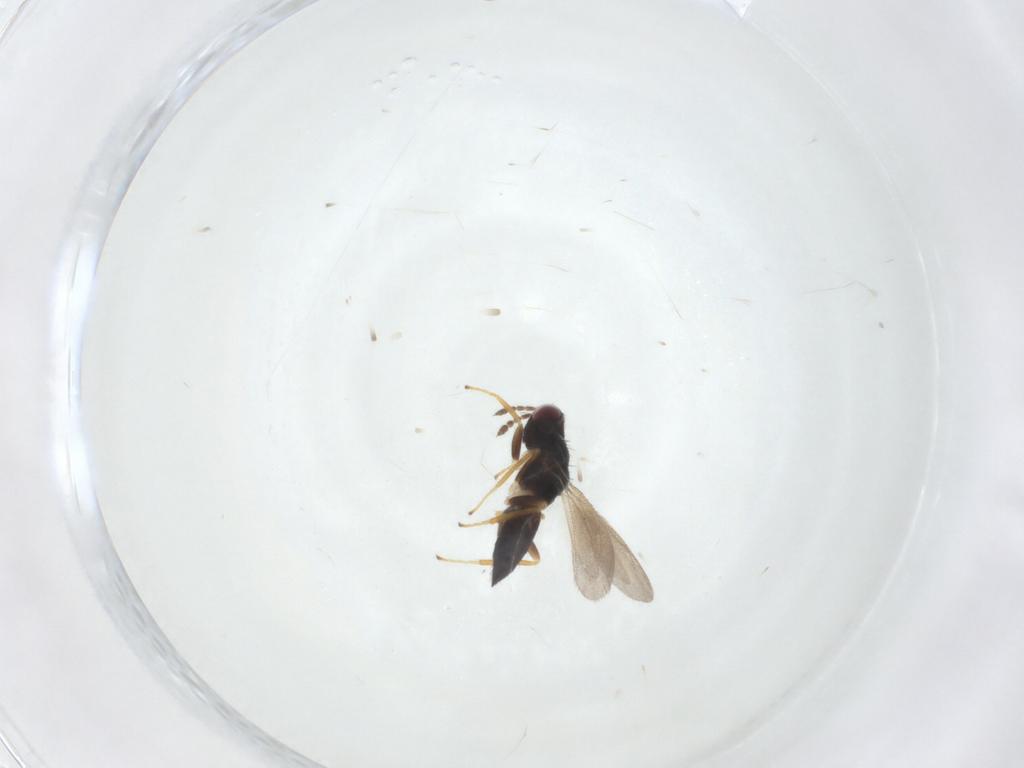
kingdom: Animalia
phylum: Arthropoda
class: Insecta
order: Hymenoptera
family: Eulophidae
